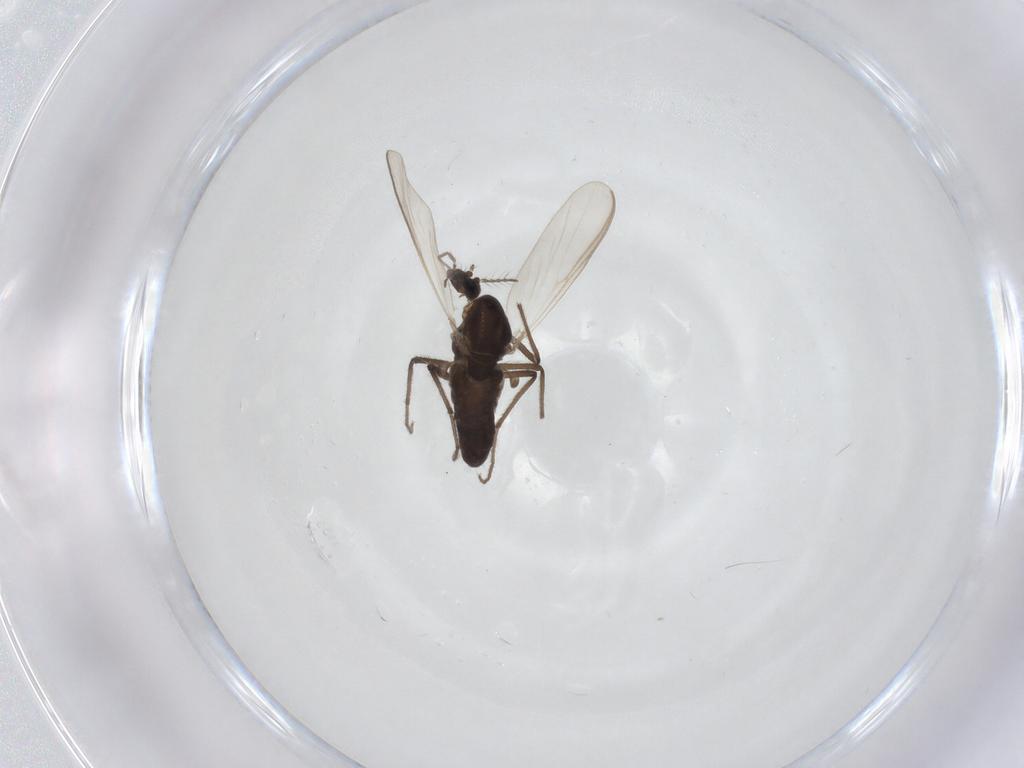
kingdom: Animalia
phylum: Arthropoda
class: Insecta
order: Diptera
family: Chironomidae
